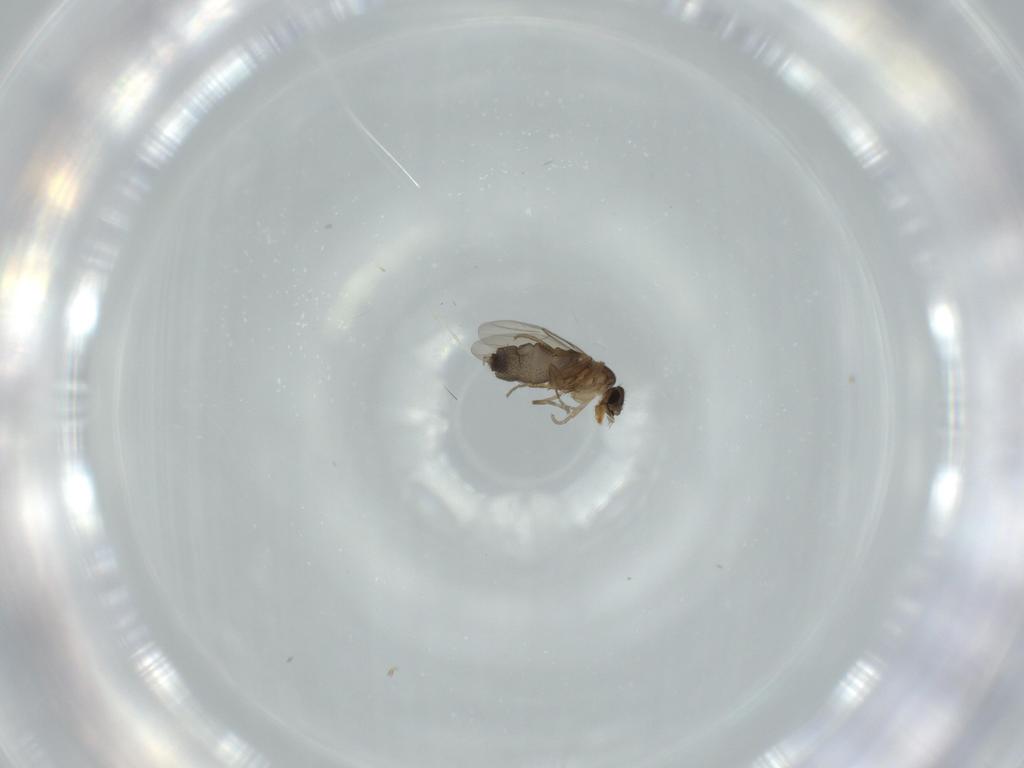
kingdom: Animalia
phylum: Arthropoda
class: Insecta
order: Diptera
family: Phoridae
